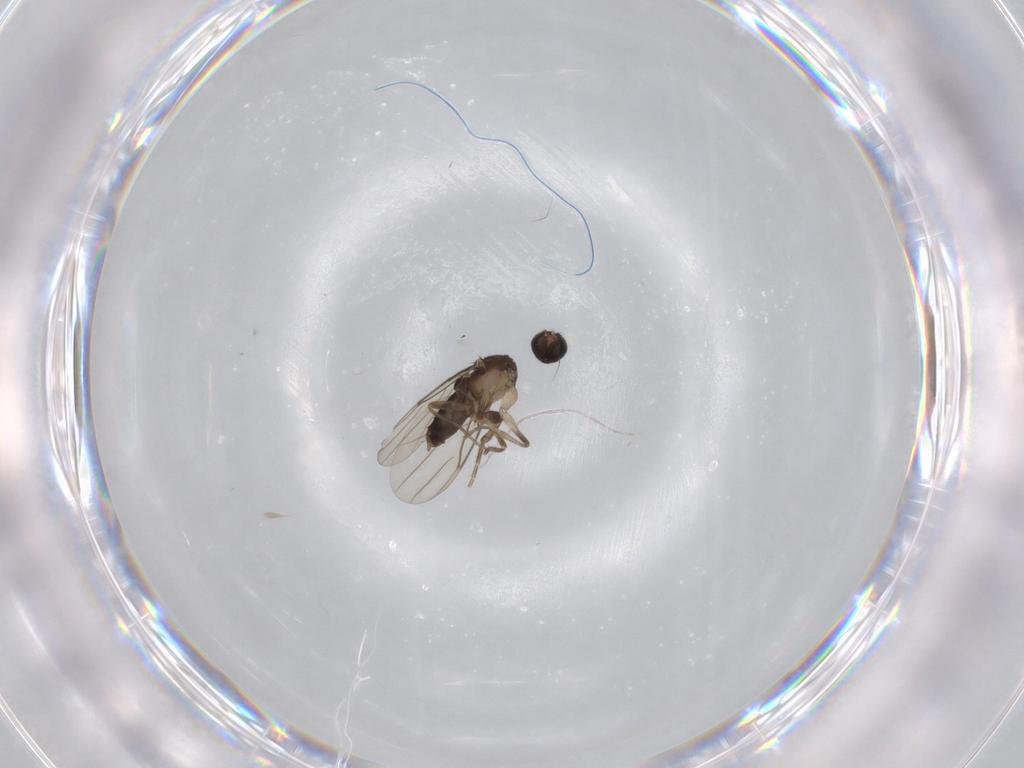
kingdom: Animalia
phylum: Arthropoda
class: Insecta
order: Diptera
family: Phoridae
